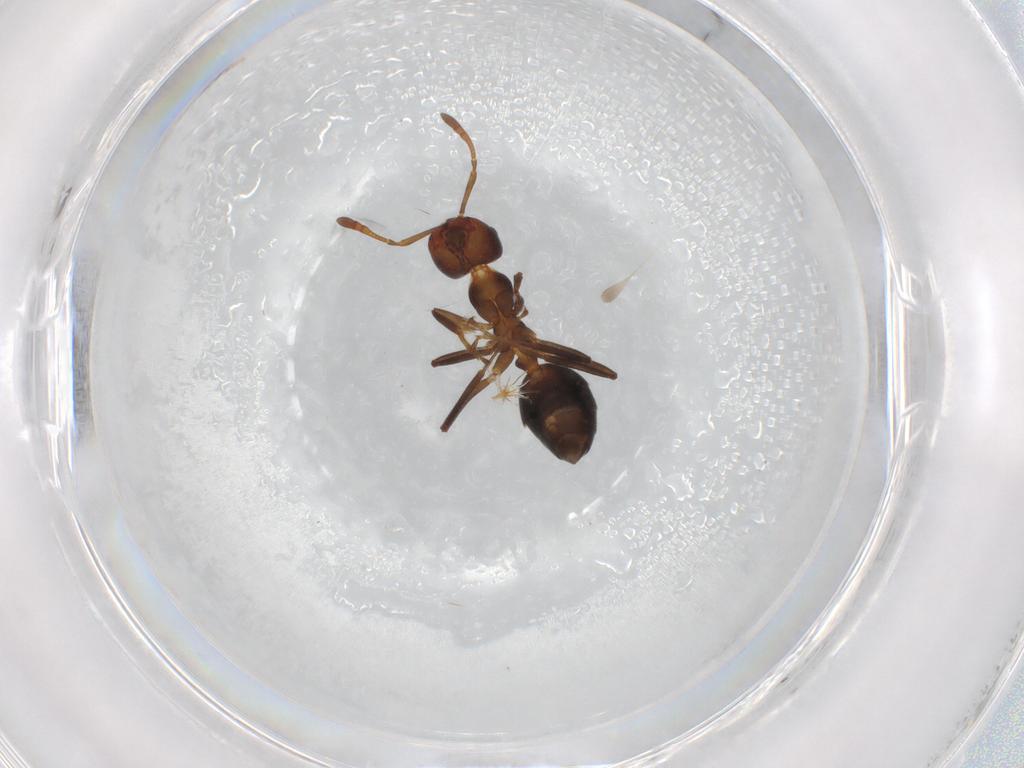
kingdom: Animalia
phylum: Arthropoda
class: Insecta
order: Hymenoptera
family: Formicidae
